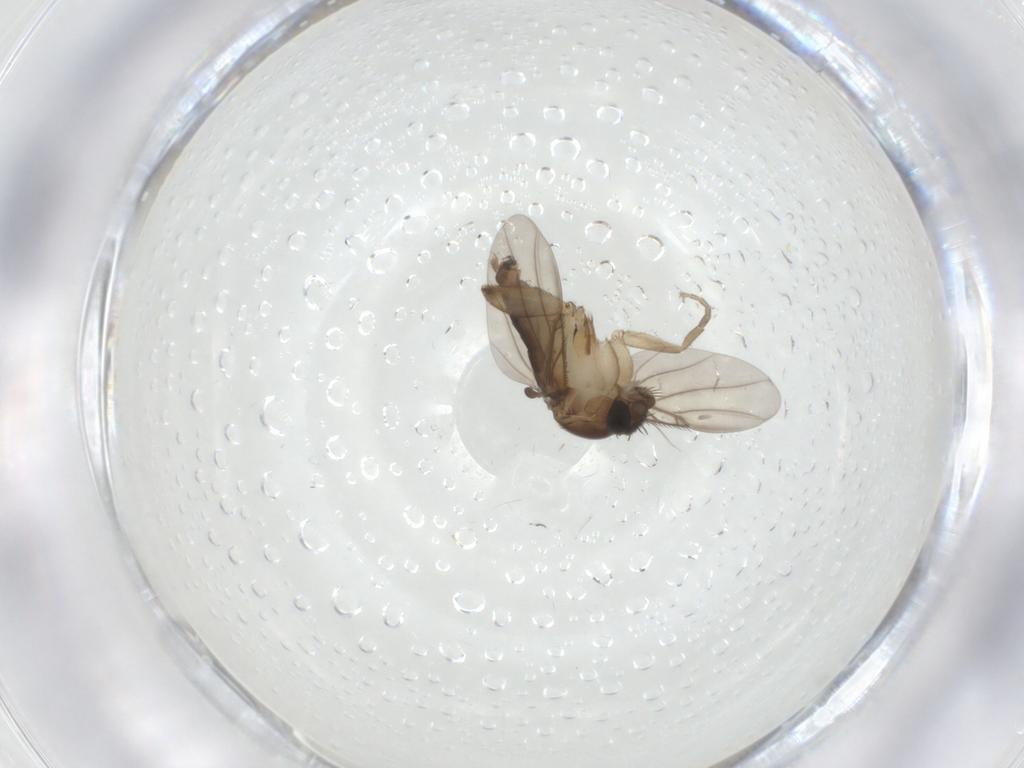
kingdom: Animalia
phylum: Arthropoda
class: Insecta
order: Diptera
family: Phoridae
